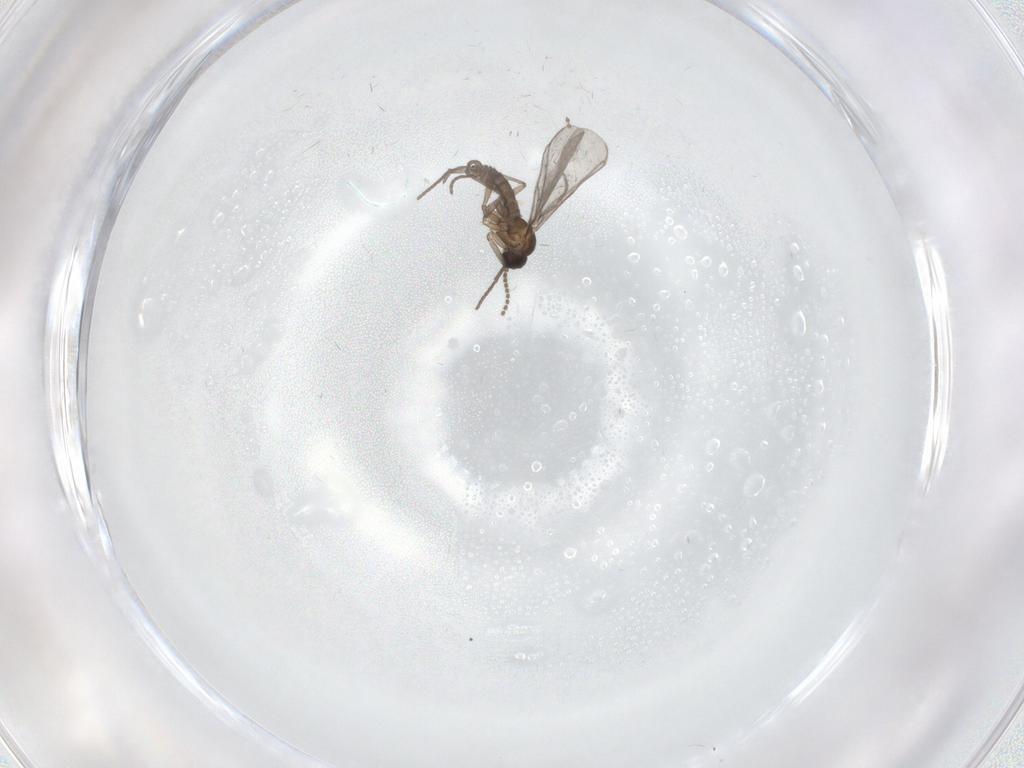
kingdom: Animalia
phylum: Arthropoda
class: Insecta
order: Diptera
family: Sciaridae
